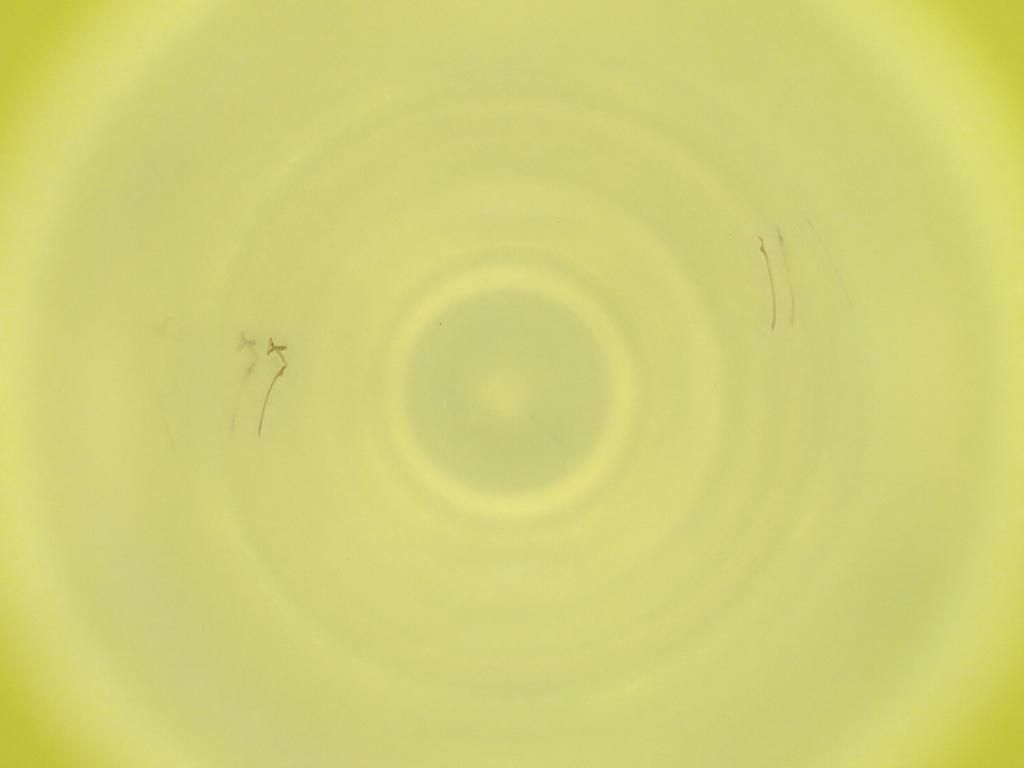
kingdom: Animalia
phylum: Arthropoda
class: Insecta
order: Diptera
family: Cecidomyiidae
